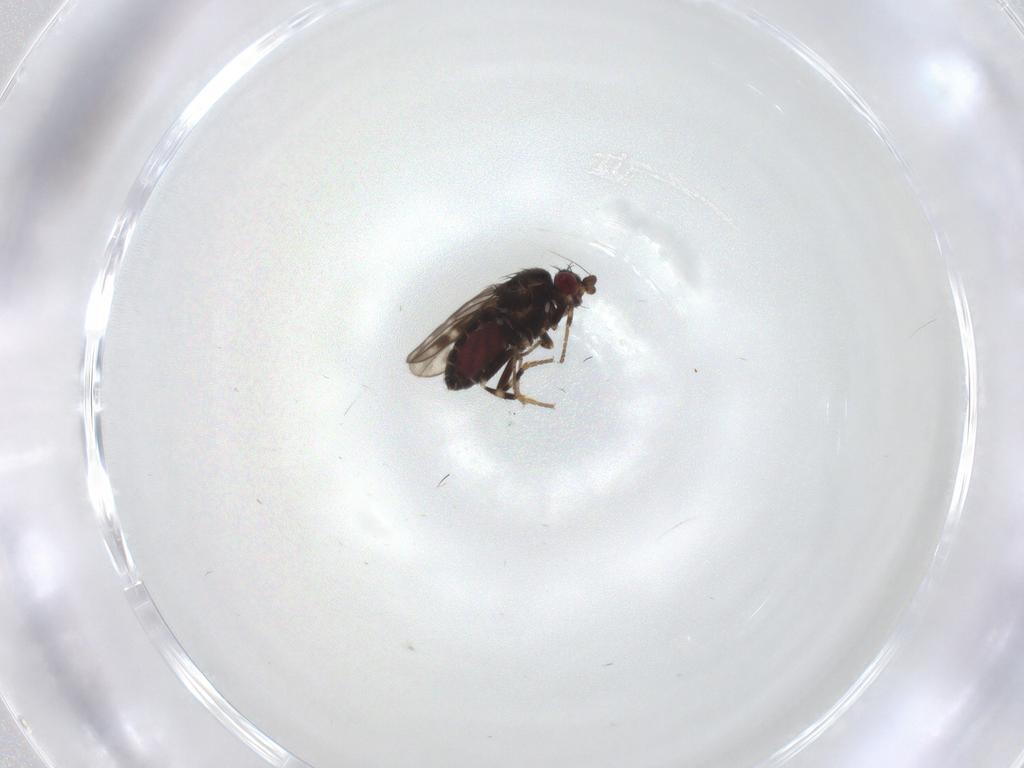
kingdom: Animalia
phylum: Arthropoda
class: Insecta
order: Diptera
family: Sphaeroceridae
